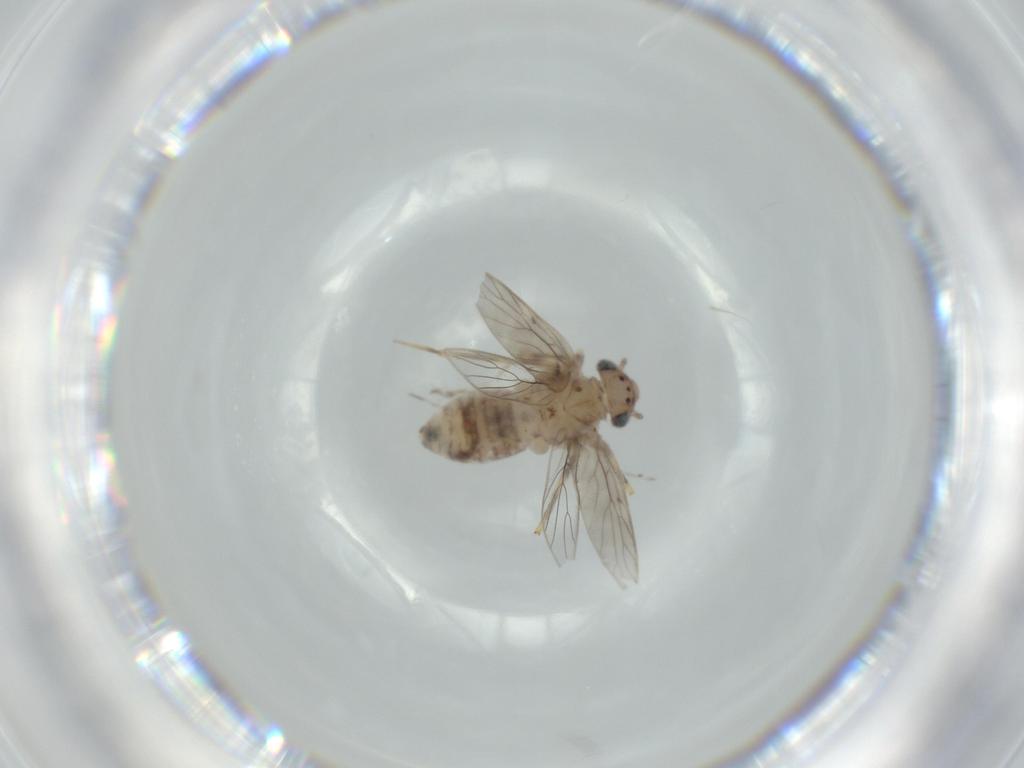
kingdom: Animalia
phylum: Arthropoda
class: Insecta
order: Psocodea
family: Lepidopsocidae
